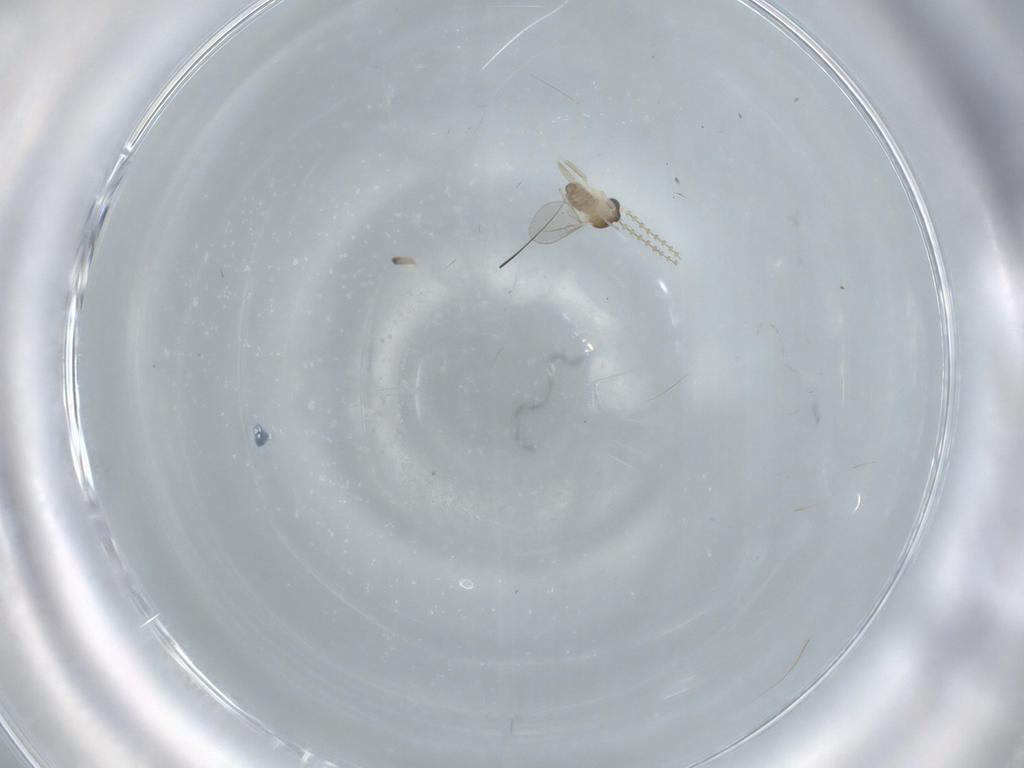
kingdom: Animalia
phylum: Arthropoda
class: Insecta
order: Diptera
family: Cecidomyiidae
